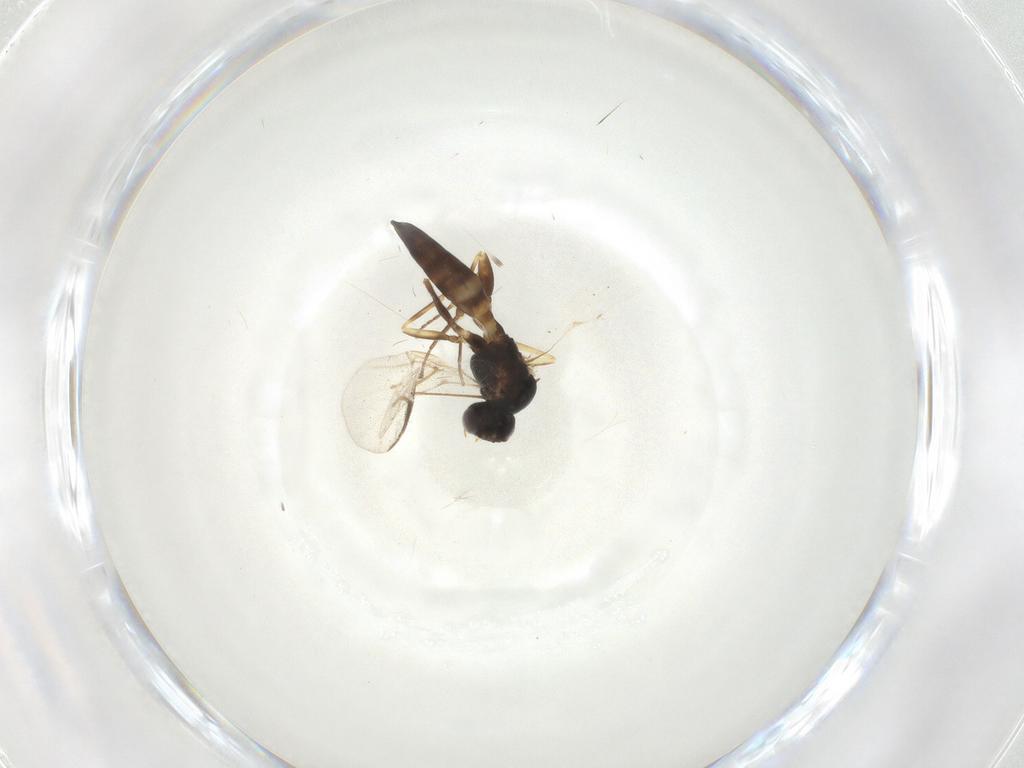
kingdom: Animalia
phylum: Arthropoda
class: Insecta
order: Hymenoptera
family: Braconidae
